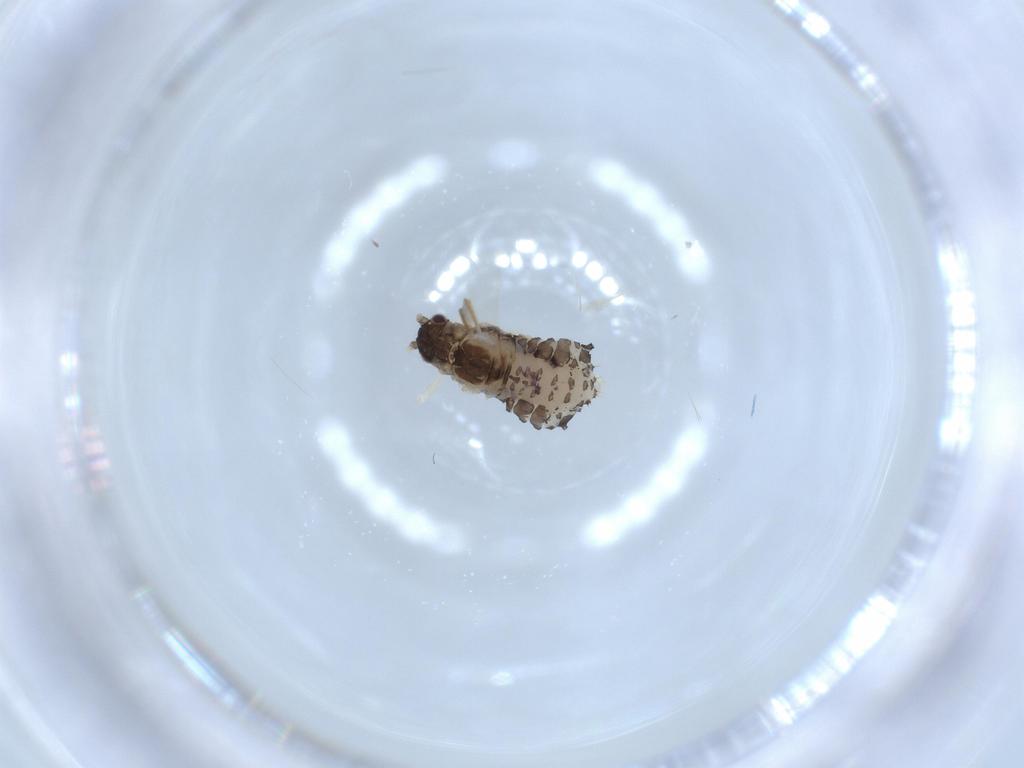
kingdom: Animalia
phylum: Arthropoda
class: Insecta
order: Hemiptera
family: Aphididae
